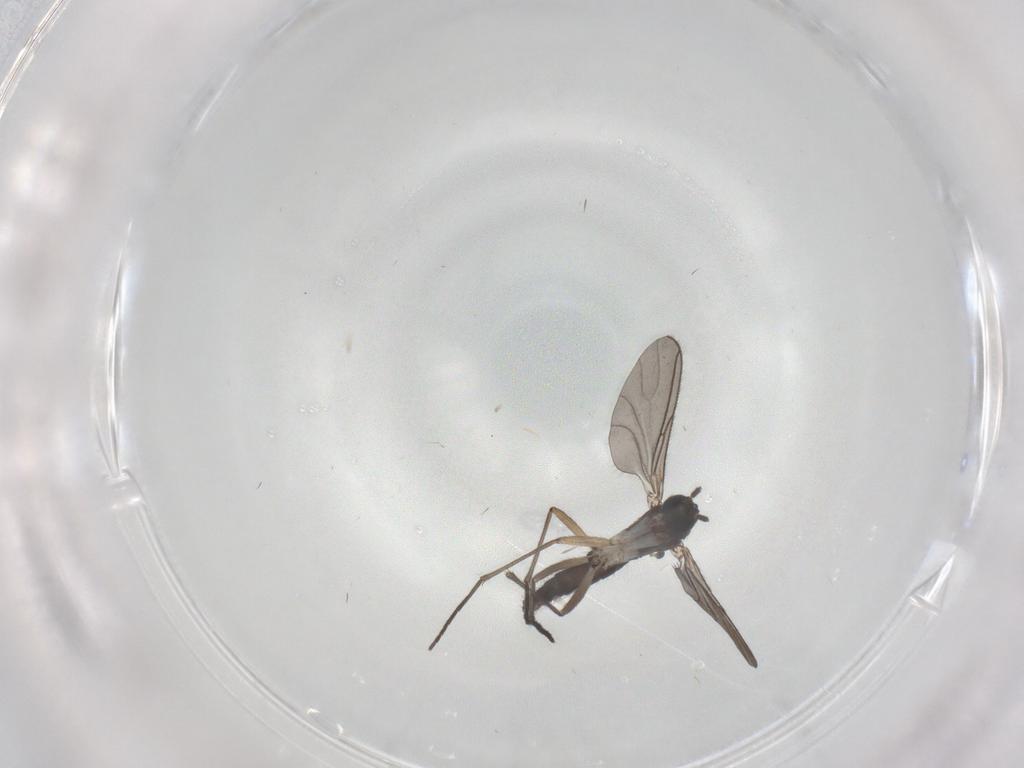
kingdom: Animalia
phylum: Arthropoda
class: Insecta
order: Diptera
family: Sciaridae
